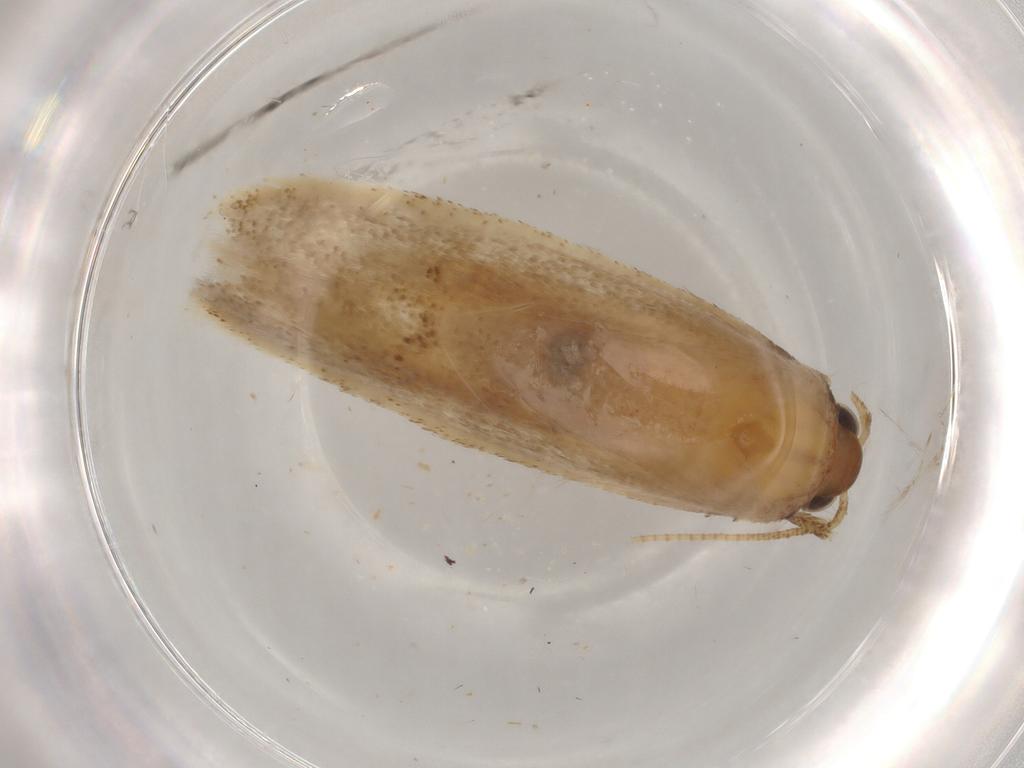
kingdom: Animalia
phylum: Arthropoda
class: Insecta
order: Lepidoptera
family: Autostichidae
